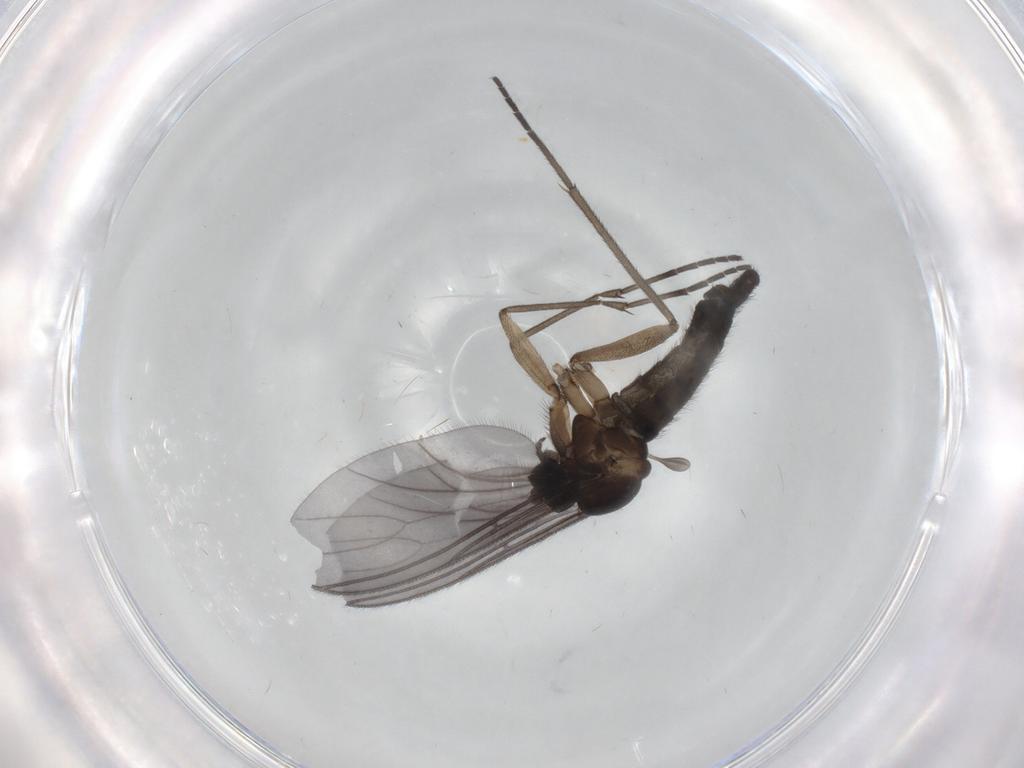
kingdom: Animalia
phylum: Arthropoda
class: Insecta
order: Diptera
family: Sciaridae
